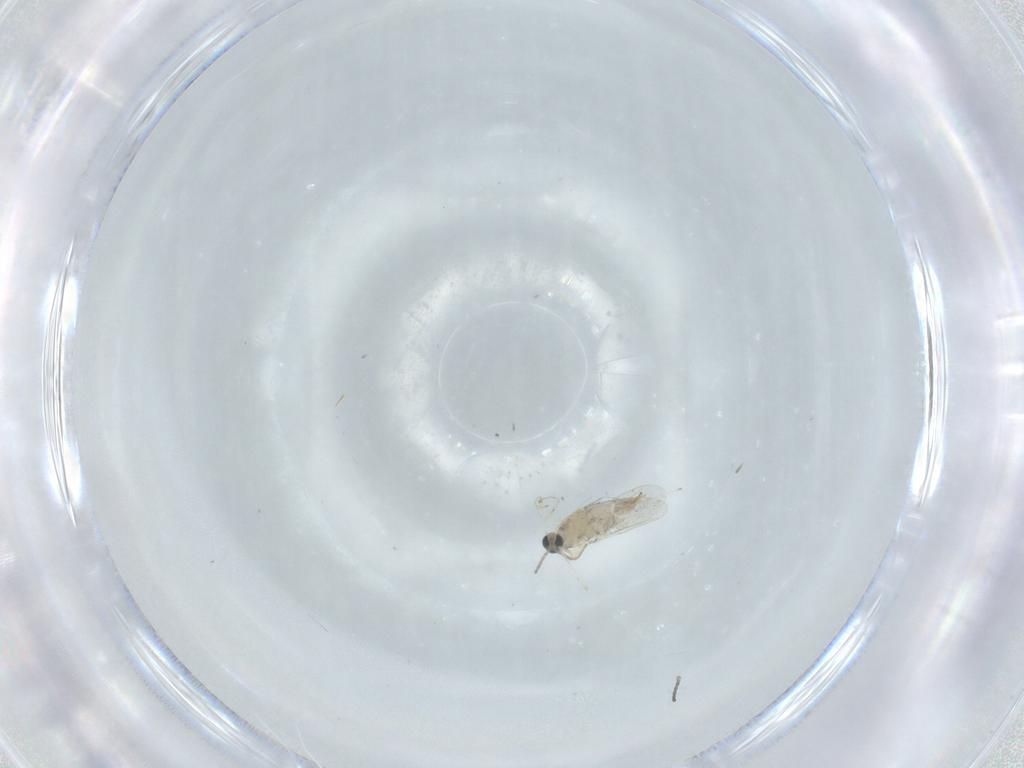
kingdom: Animalia
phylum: Arthropoda
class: Insecta
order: Diptera
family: Cecidomyiidae
